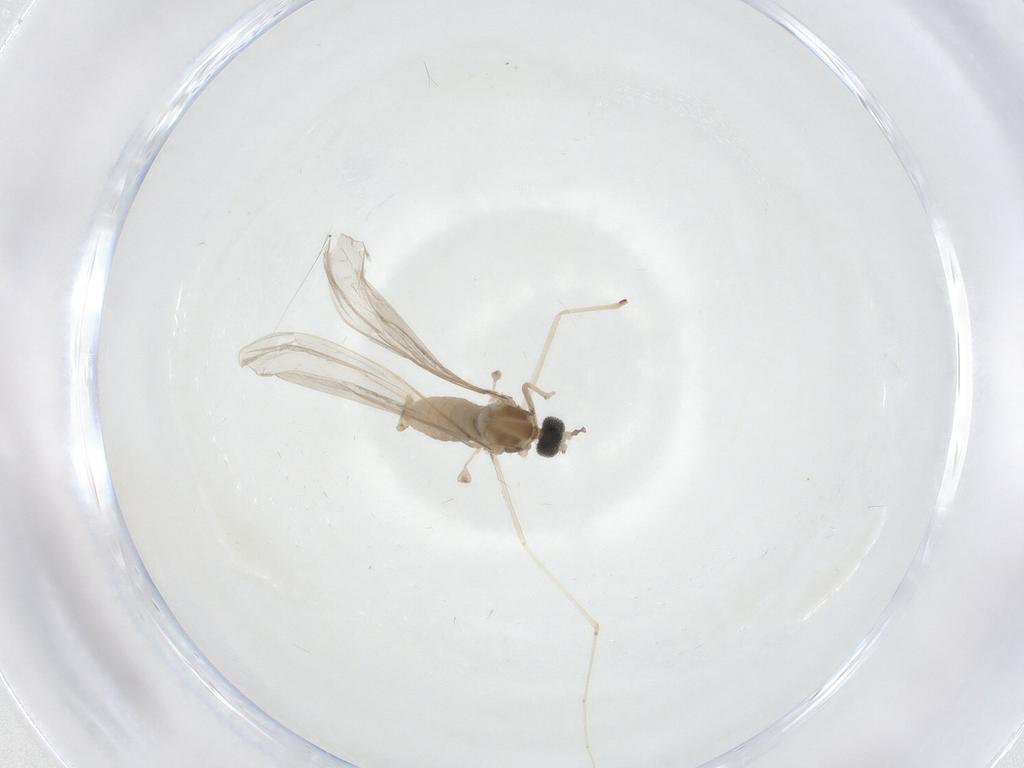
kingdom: Animalia
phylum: Arthropoda
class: Insecta
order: Diptera
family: Cecidomyiidae
